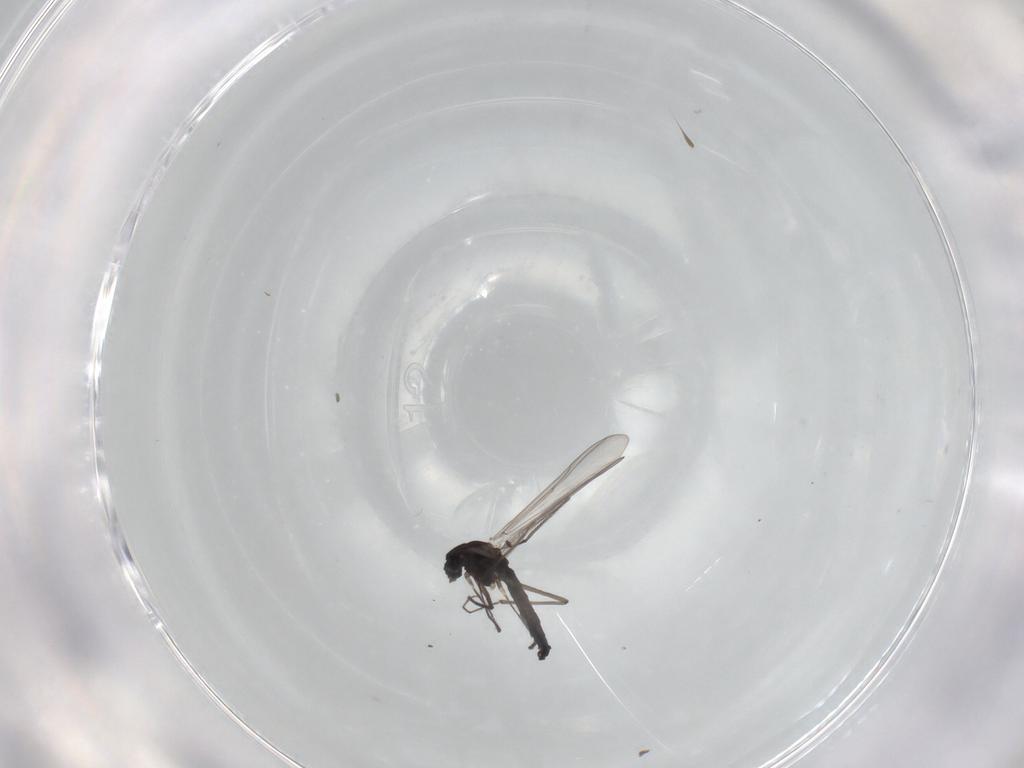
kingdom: Animalia
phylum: Arthropoda
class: Insecta
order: Diptera
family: Chironomidae
